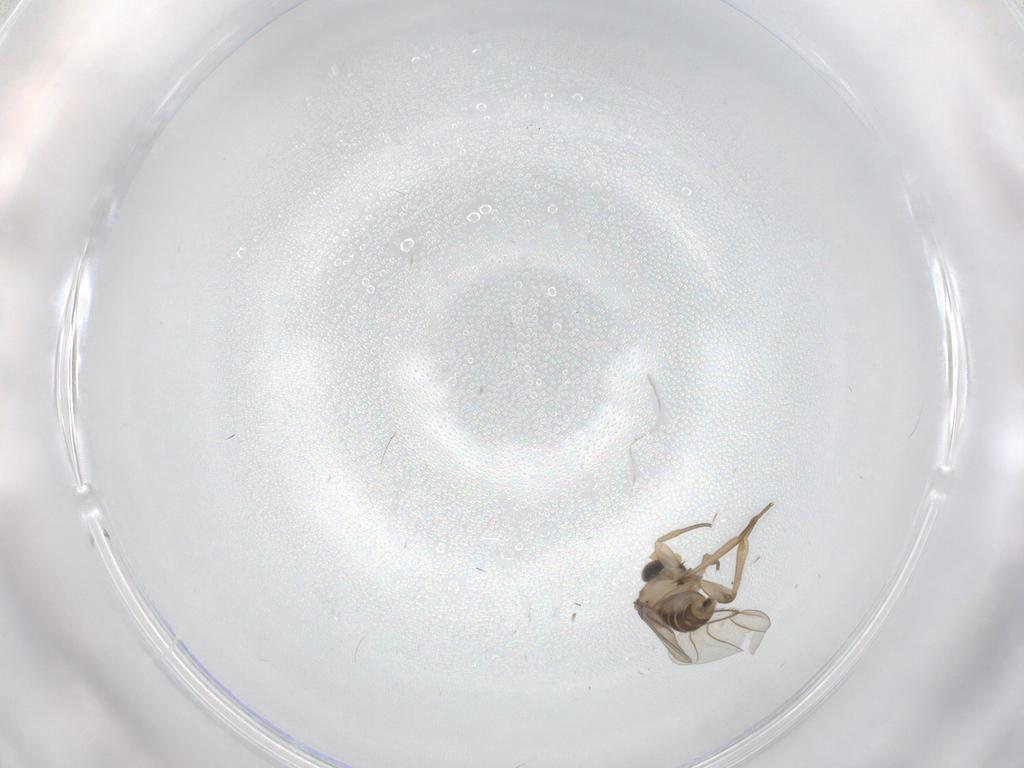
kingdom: Animalia
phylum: Arthropoda
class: Insecta
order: Diptera
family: Phoridae
